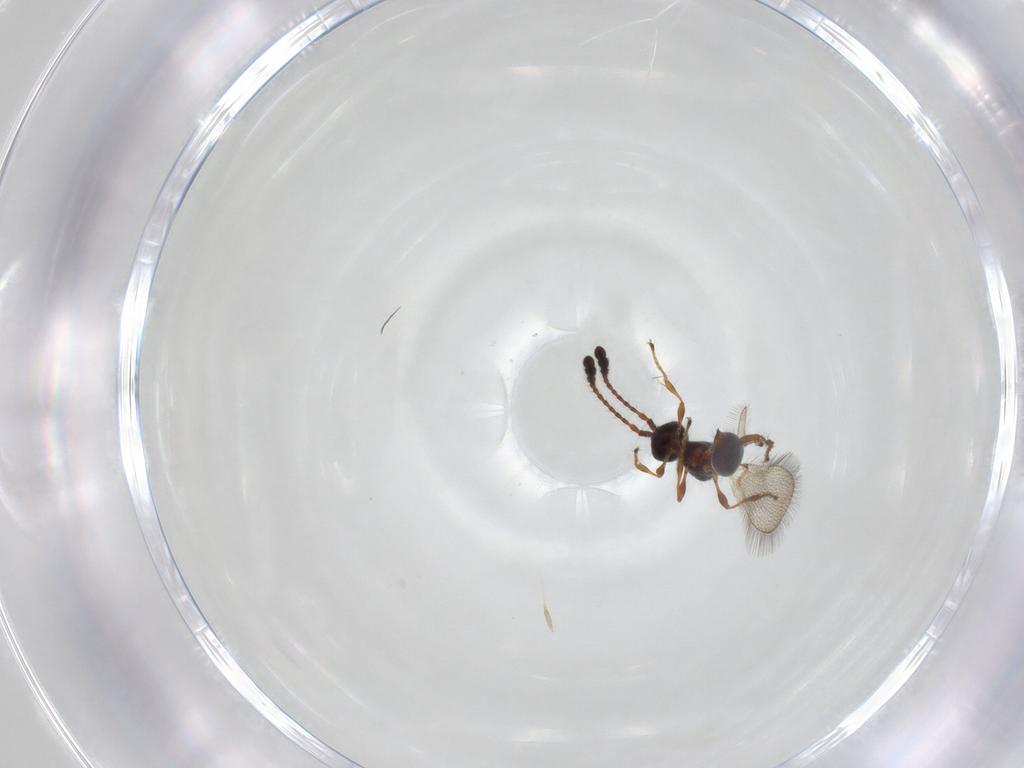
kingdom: Animalia
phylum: Arthropoda
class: Insecta
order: Hymenoptera
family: Diapriidae
